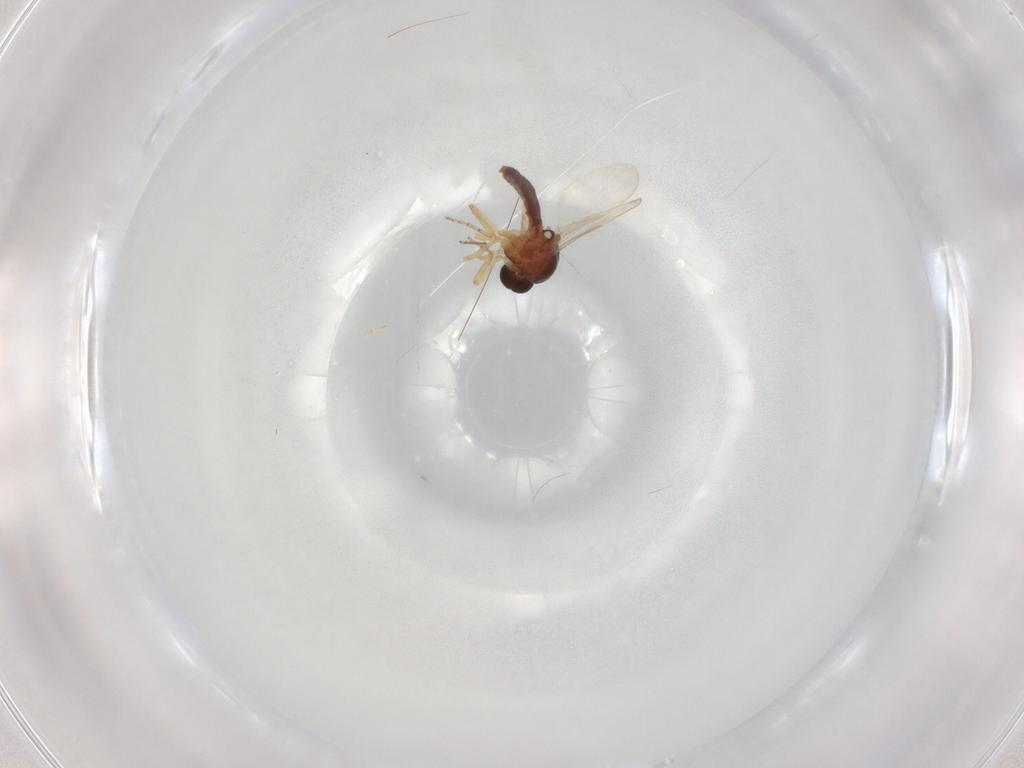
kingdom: Animalia
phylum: Arthropoda
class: Insecta
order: Diptera
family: Ceratopogonidae
